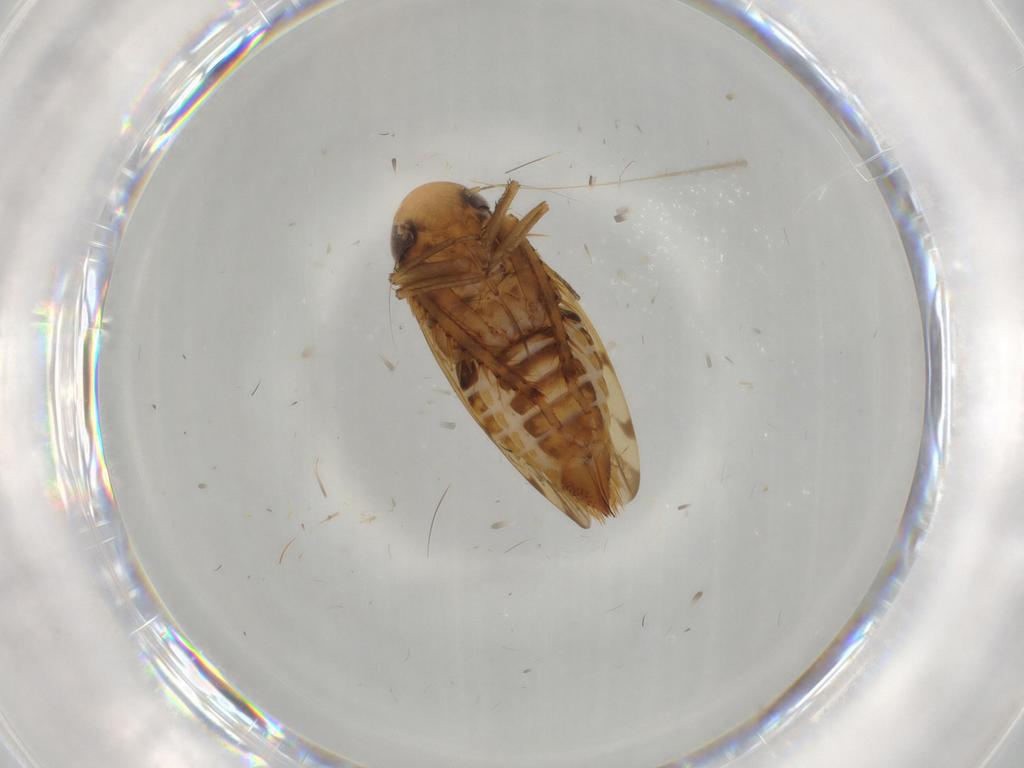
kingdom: Animalia
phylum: Arthropoda
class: Insecta
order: Hemiptera
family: Cicadellidae
